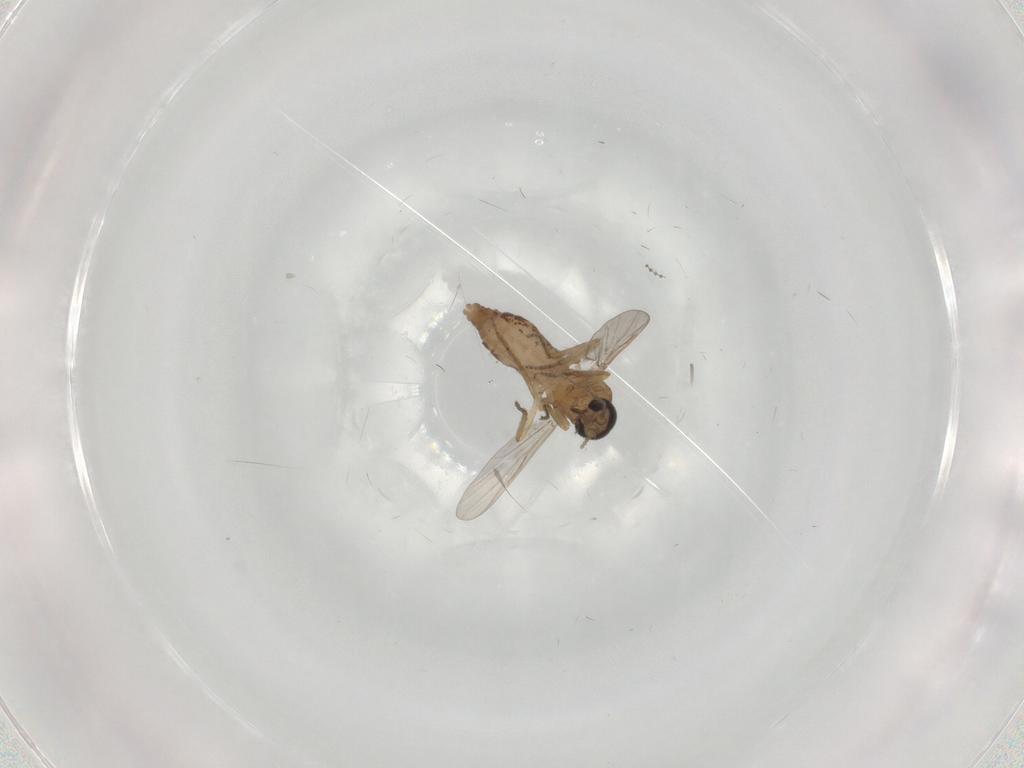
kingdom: Animalia
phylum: Arthropoda
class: Insecta
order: Diptera
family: Ceratopogonidae
